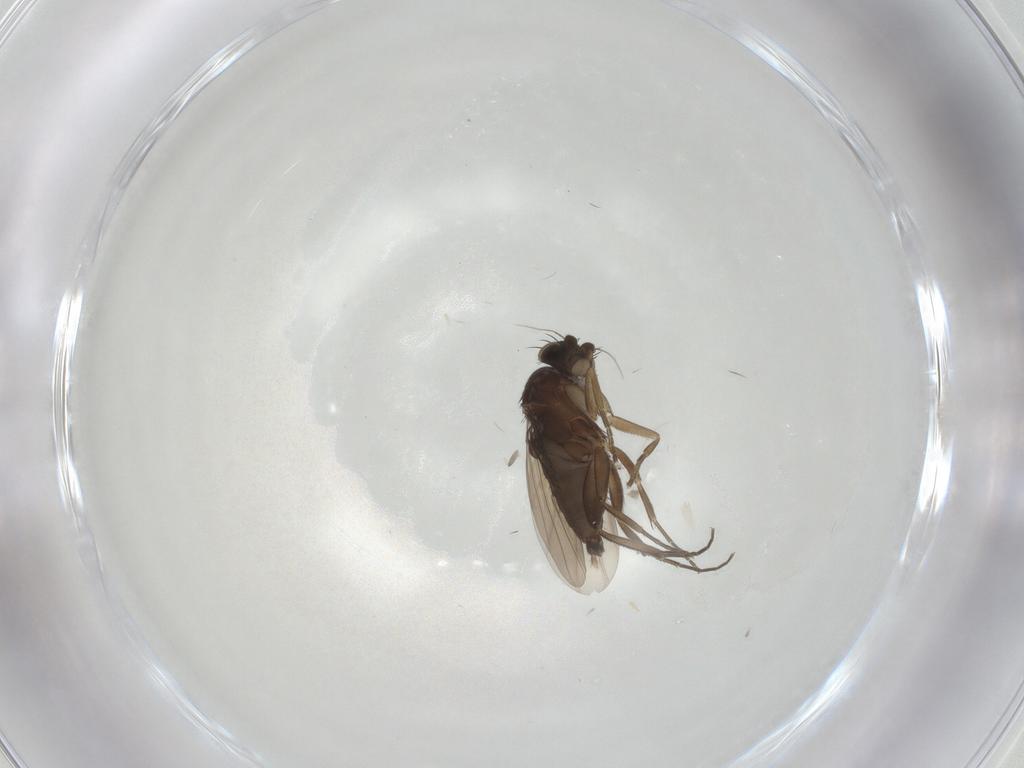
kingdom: Animalia
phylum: Arthropoda
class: Insecta
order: Diptera
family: Phoridae
